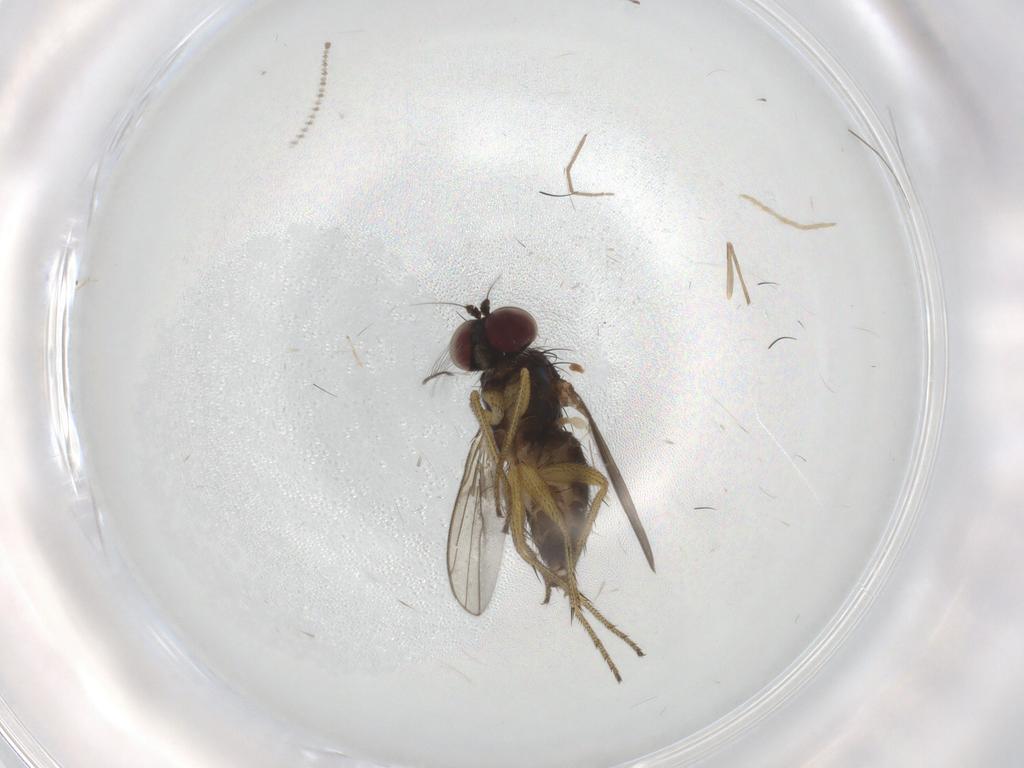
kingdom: Animalia
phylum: Arthropoda
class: Insecta
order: Diptera
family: Chironomidae
